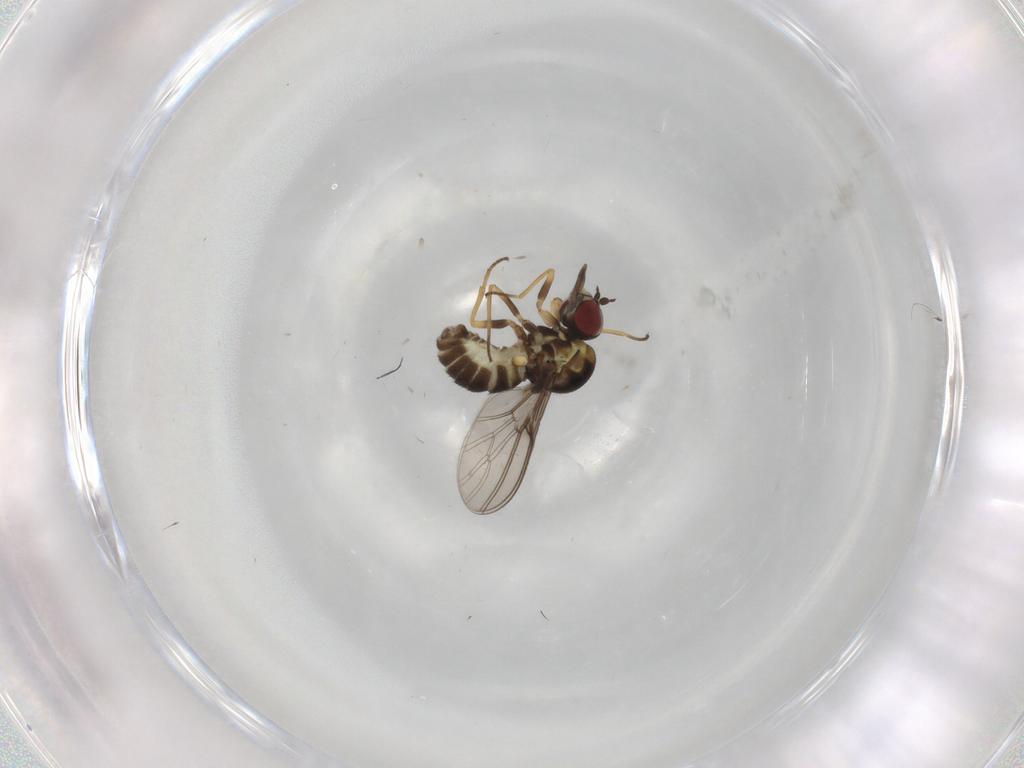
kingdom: Animalia
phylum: Arthropoda
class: Insecta
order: Diptera
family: Bombyliidae
